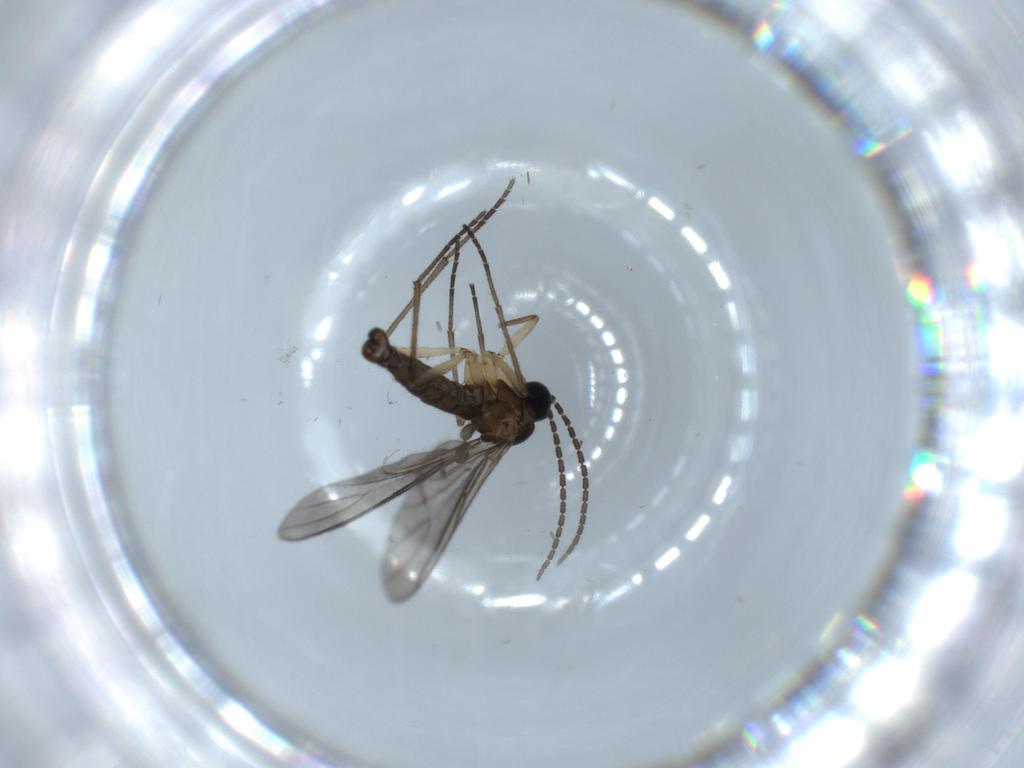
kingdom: Animalia
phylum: Arthropoda
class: Insecta
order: Diptera
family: Sciaridae
